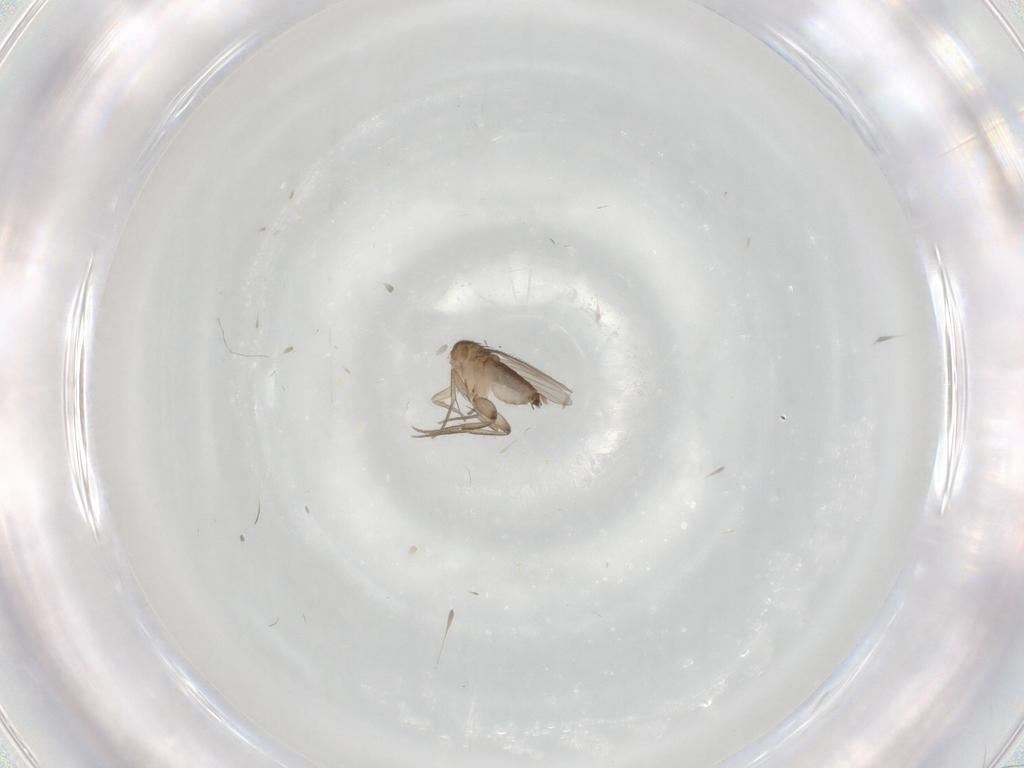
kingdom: Animalia
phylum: Arthropoda
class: Insecta
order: Diptera
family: Phoridae
